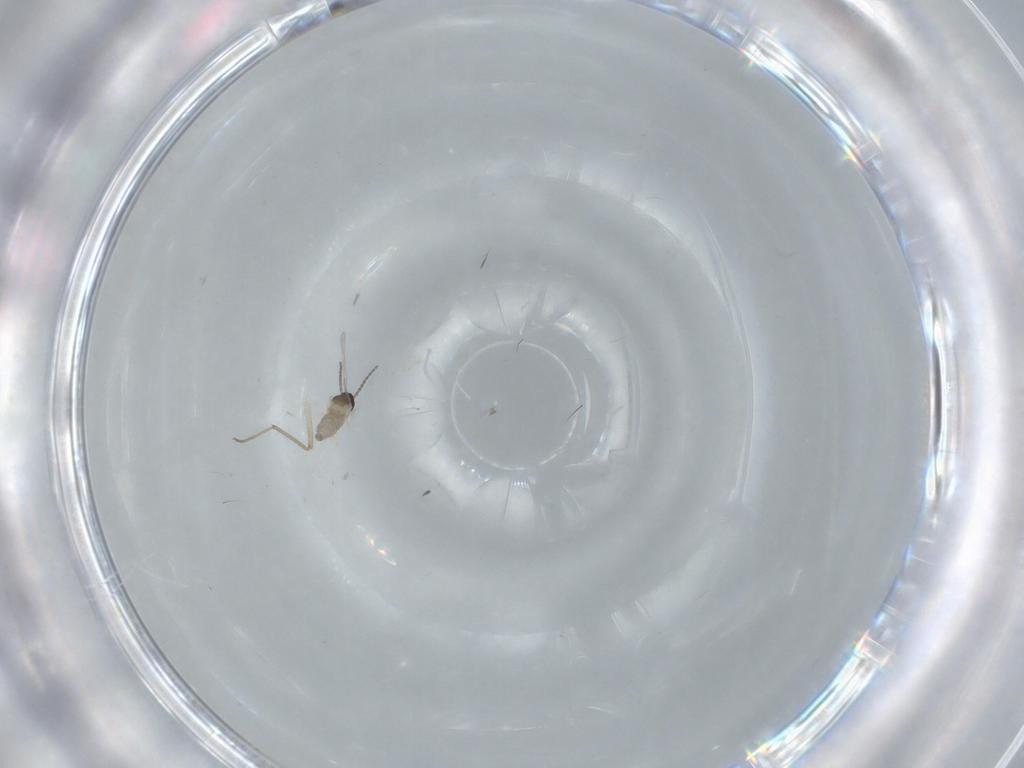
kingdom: Animalia
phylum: Arthropoda
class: Insecta
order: Diptera
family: Cecidomyiidae
